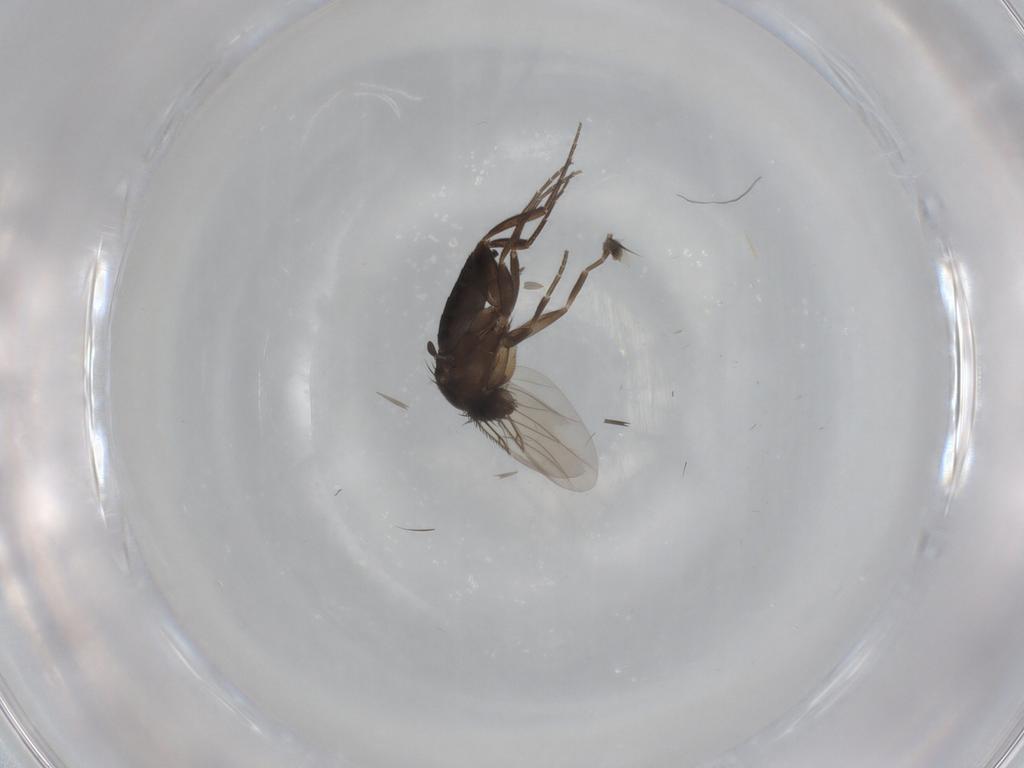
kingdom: Animalia
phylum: Arthropoda
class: Insecta
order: Diptera
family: Phoridae
